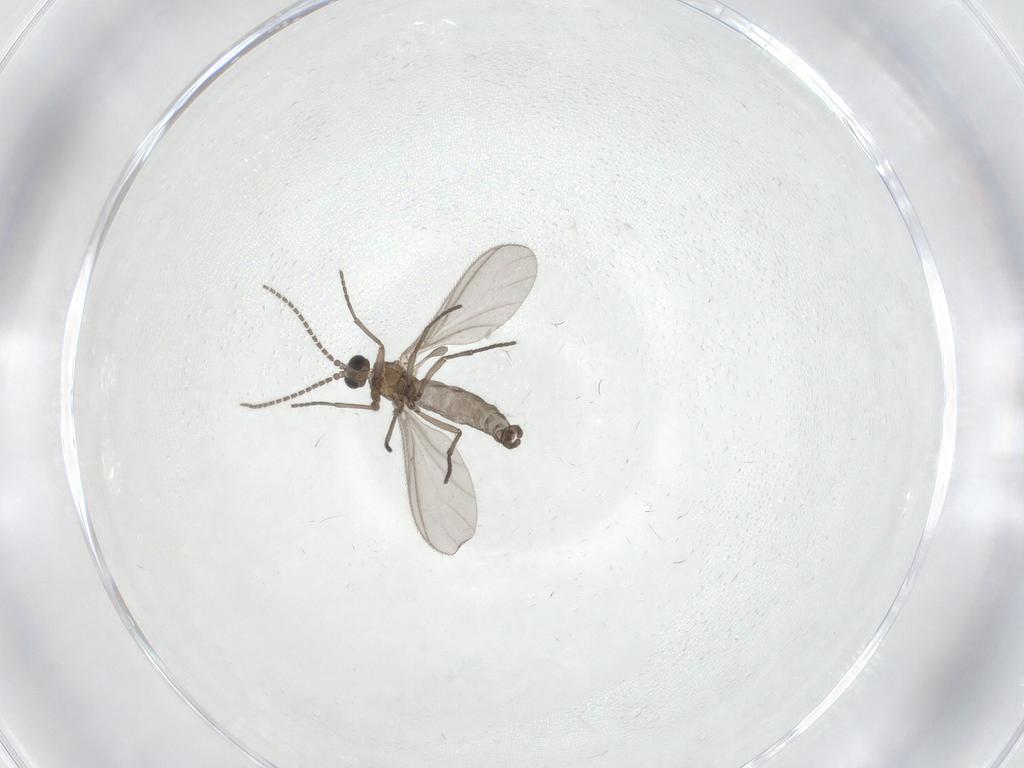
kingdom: Animalia
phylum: Arthropoda
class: Insecta
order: Diptera
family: Sciaridae
